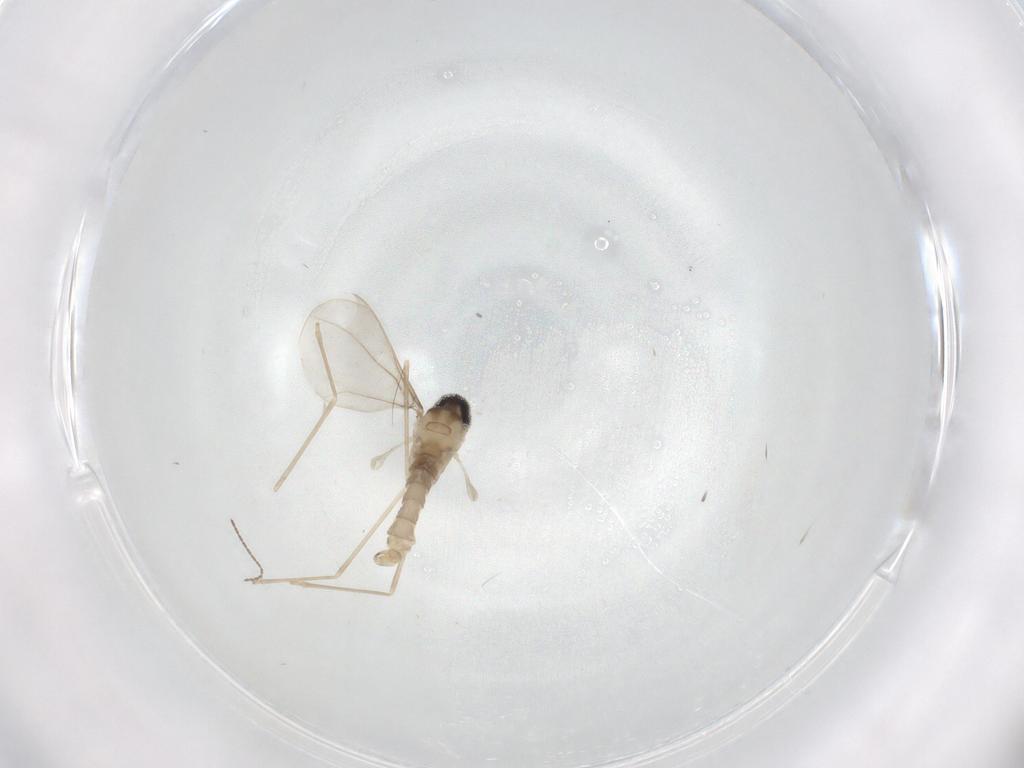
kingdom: Animalia
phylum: Arthropoda
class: Insecta
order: Diptera
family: Cecidomyiidae
